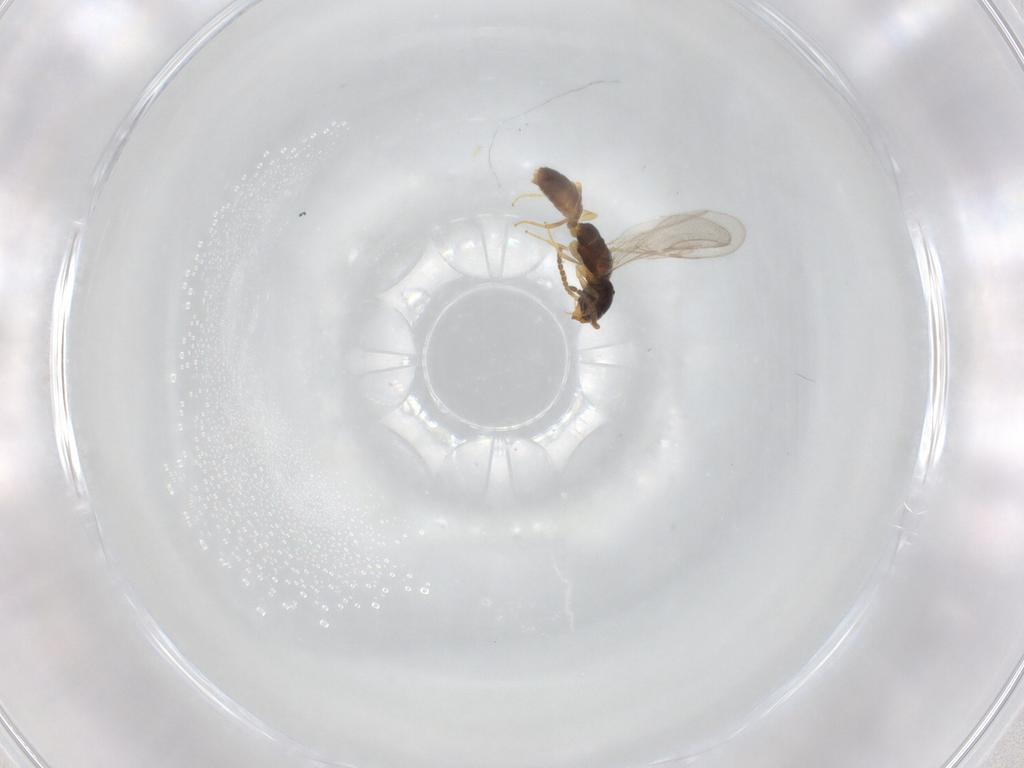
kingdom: Animalia
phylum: Arthropoda
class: Insecta
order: Hymenoptera
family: Bethylidae
